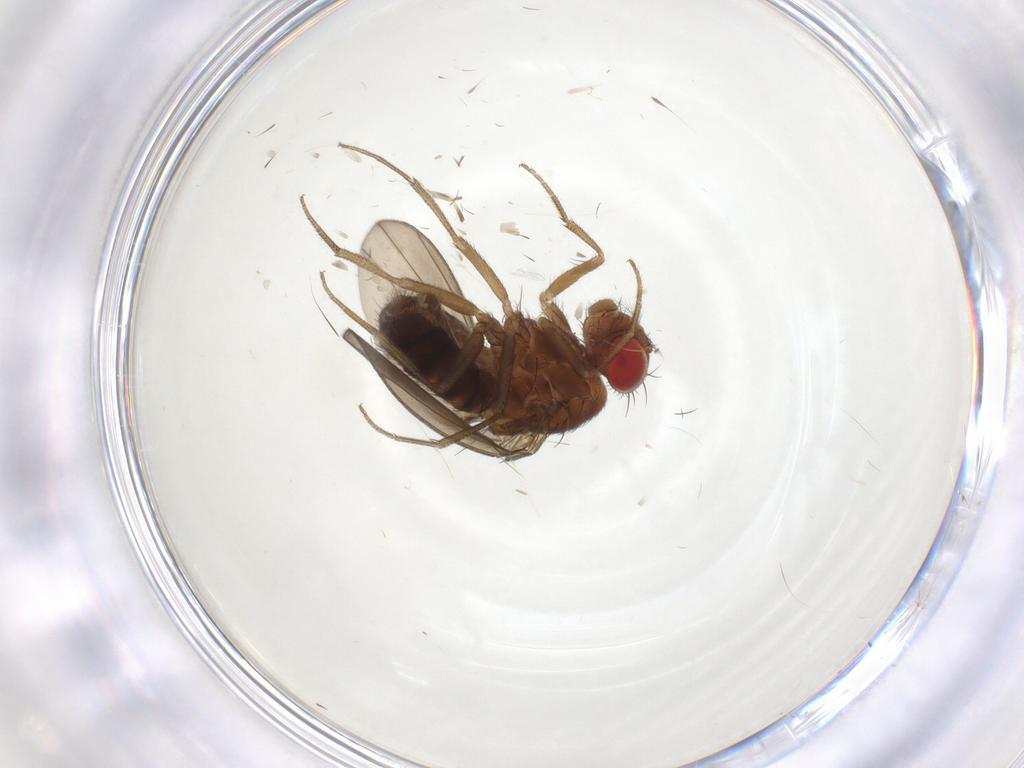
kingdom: Animalia
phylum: Arthropoda
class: Insecta
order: Diptera
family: Drosophilidae
